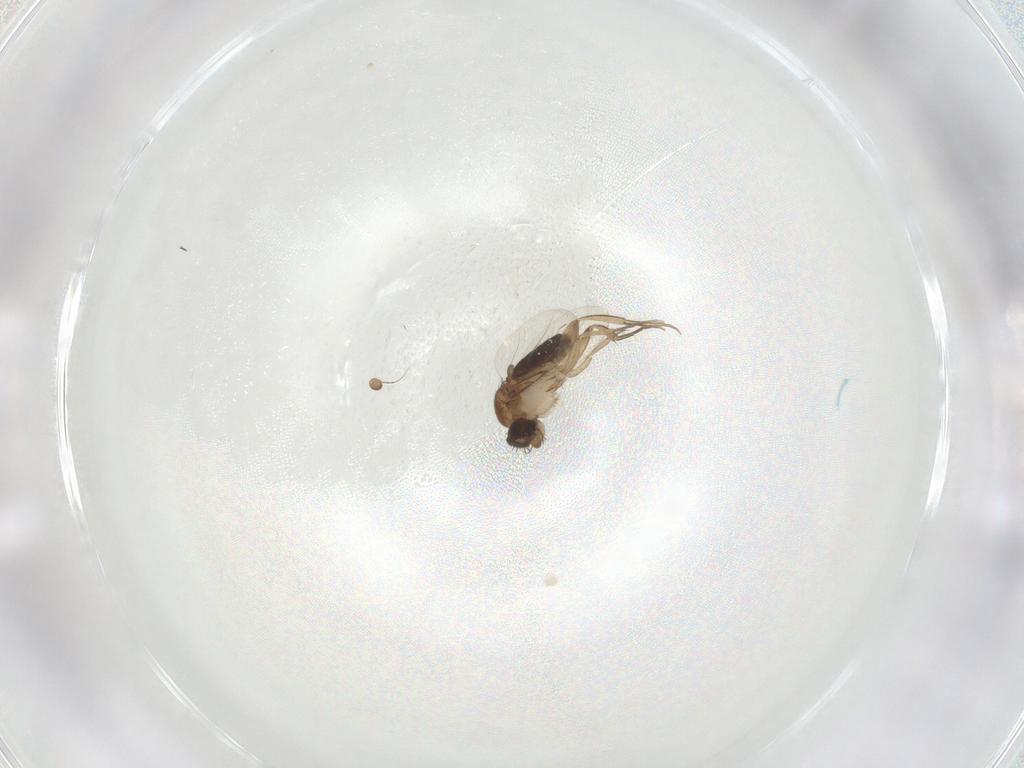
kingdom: Animalia
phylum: Arthropoda
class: Insecta
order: Diptera
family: Phoridae
